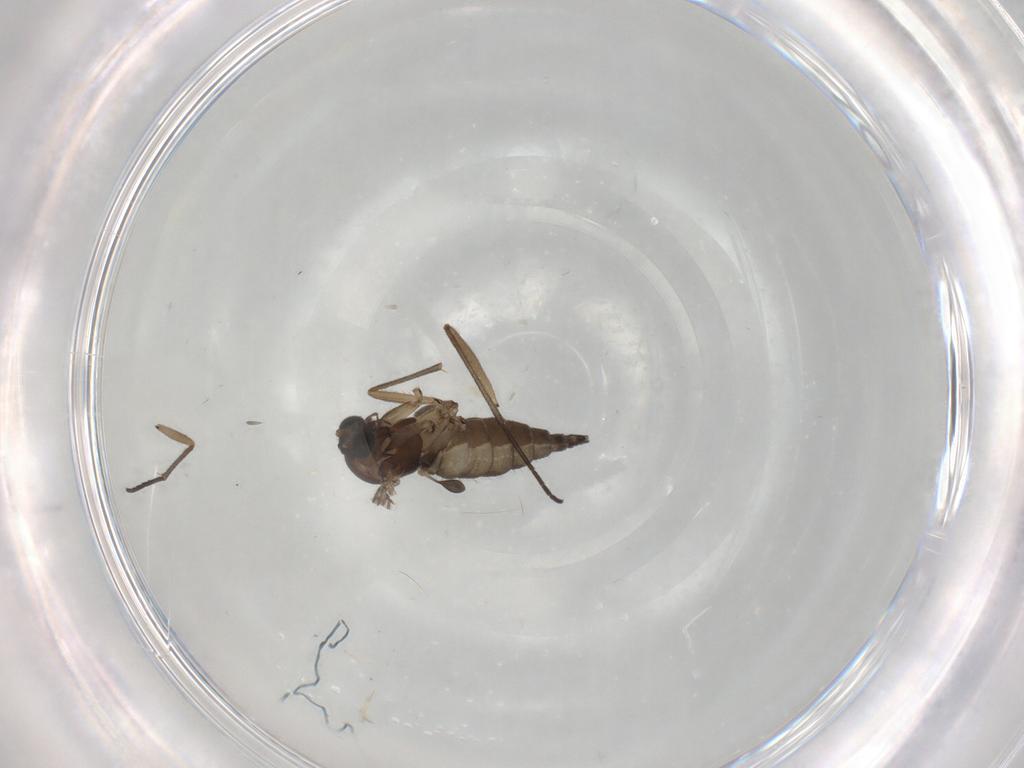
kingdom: Animalia
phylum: Arthropoda
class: Insecta
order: Diptera
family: Cecidomyiidae
